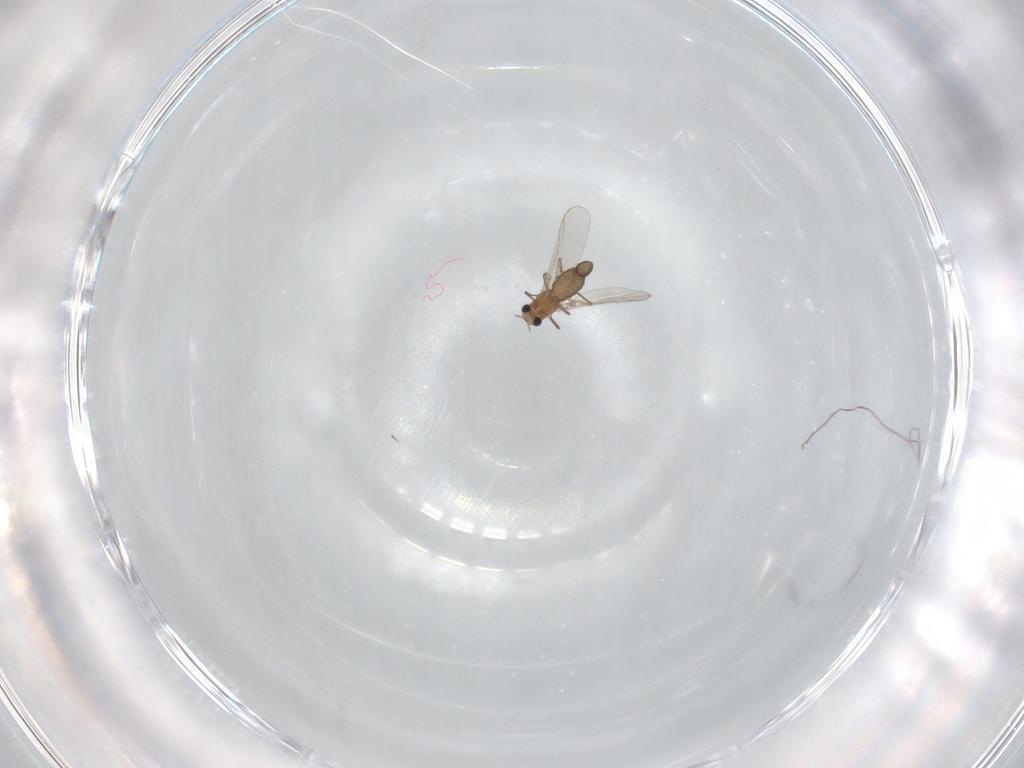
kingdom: Animalia
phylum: Arthropoda
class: Insecta
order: Diptera
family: Chironomidae
